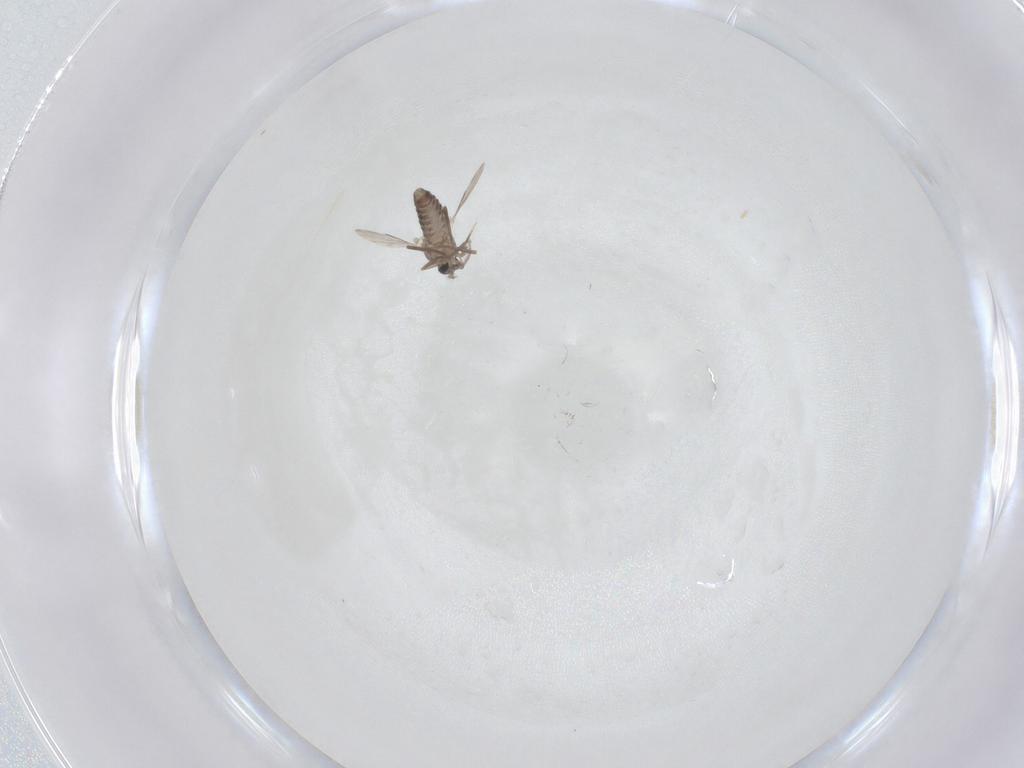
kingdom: Animalia
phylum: Arthropoda
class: Insecta
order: Diptera
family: Ceratopogonidae
